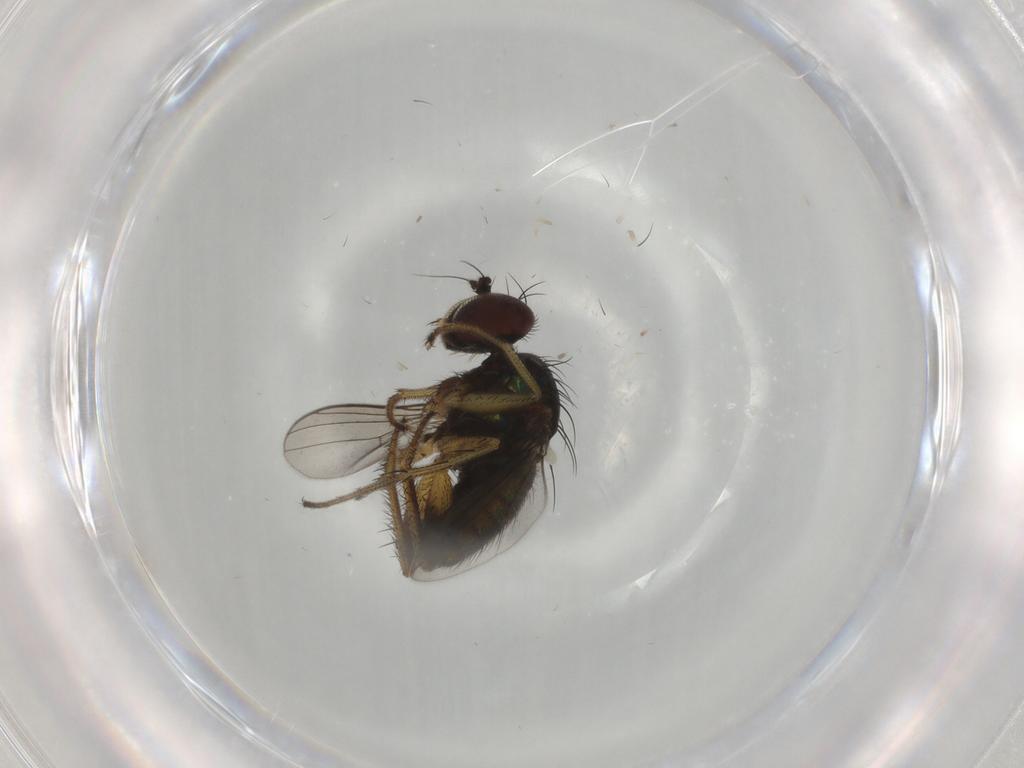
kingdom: Animalia
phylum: Arthropoda
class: Insecta
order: Diptera
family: Dolichopodidae
